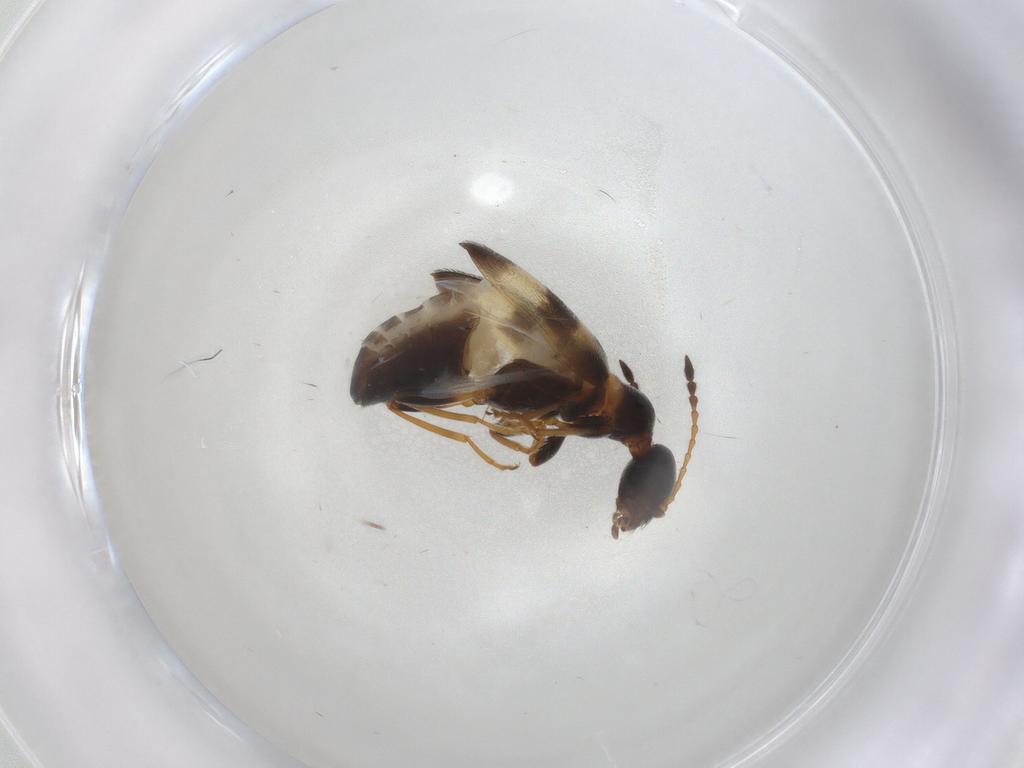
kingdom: Animalia
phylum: Arthropoda
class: Insecta
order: Coleoptera
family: Anthicidae
